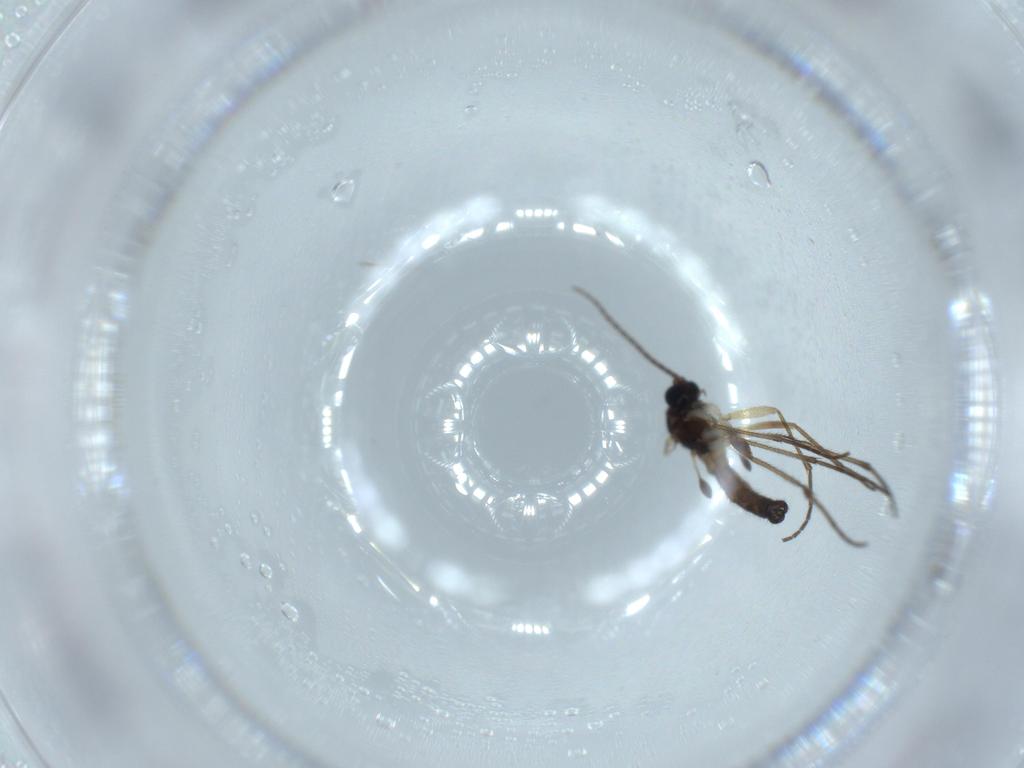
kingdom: Animalia
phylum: Arthropoda
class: Insecta
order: Diptera
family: Sciaridae
